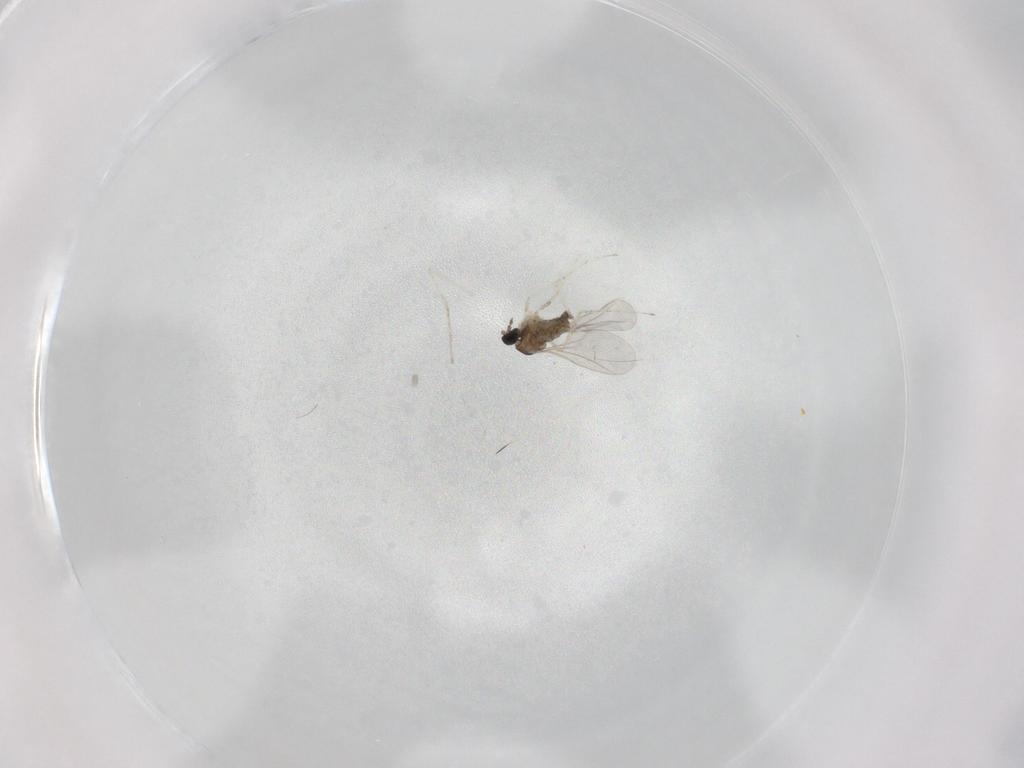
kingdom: Animalia
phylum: Arthropoda
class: Insecta
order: Diptera
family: Cecidomyiidae
